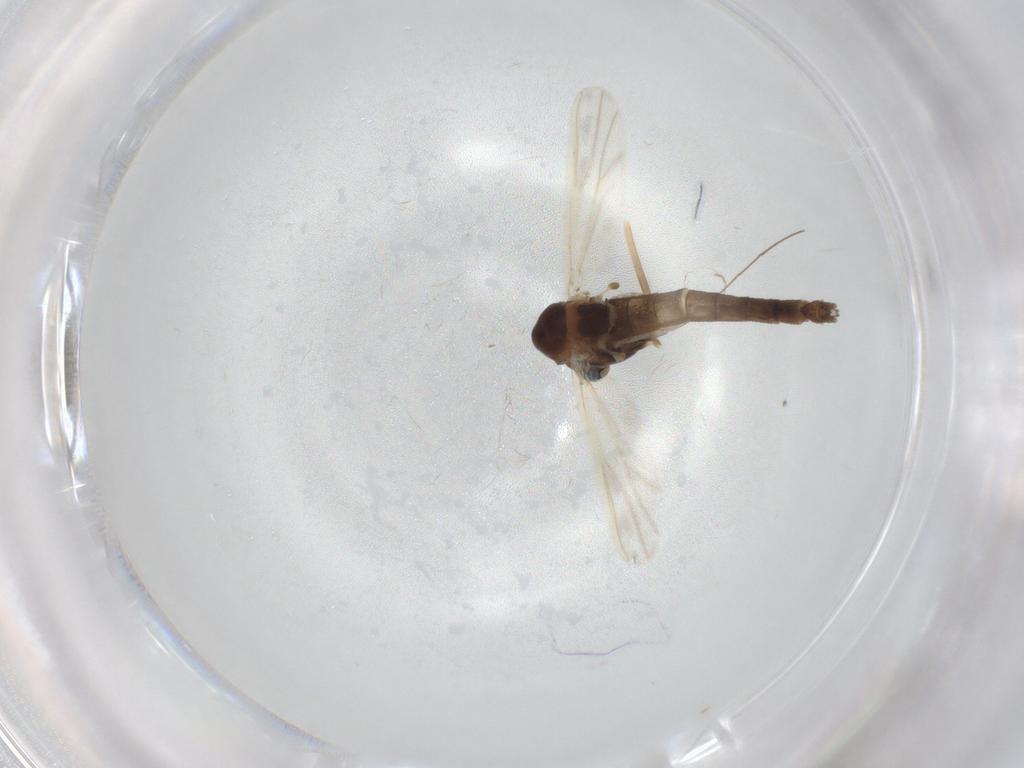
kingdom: Animalia
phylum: Arthropoda
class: Insecta
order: Diptera
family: Chironomidae
